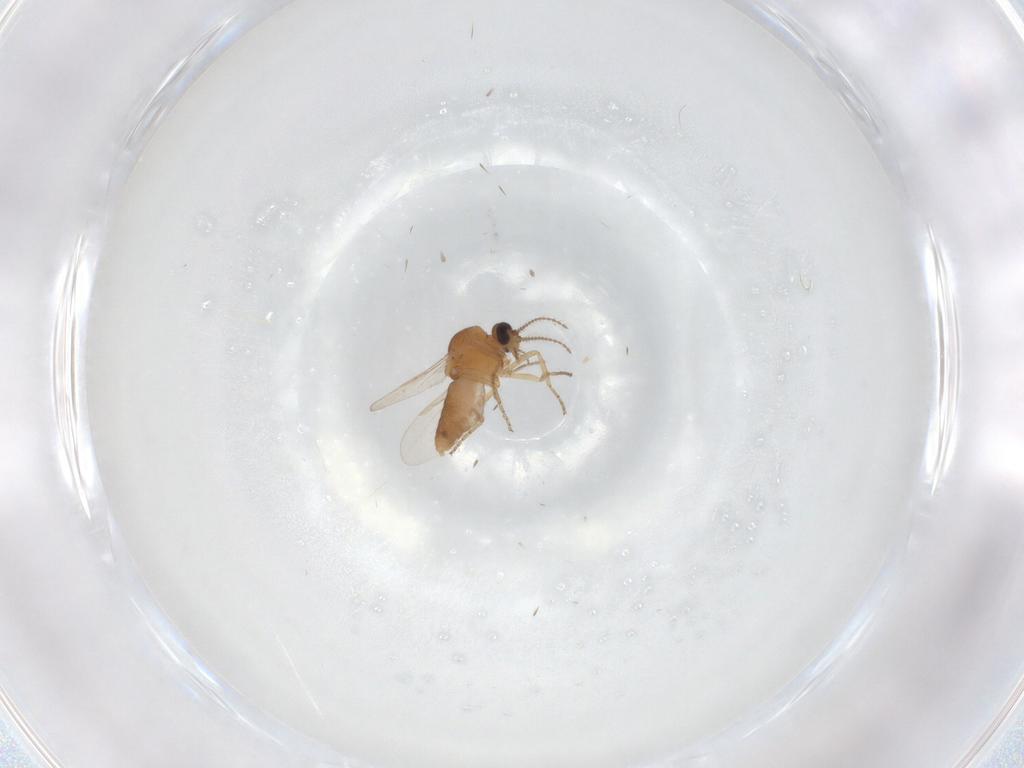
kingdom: Animalia
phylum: Arthropoda
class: Insecta
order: Diptera
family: Ceratopogonidae
